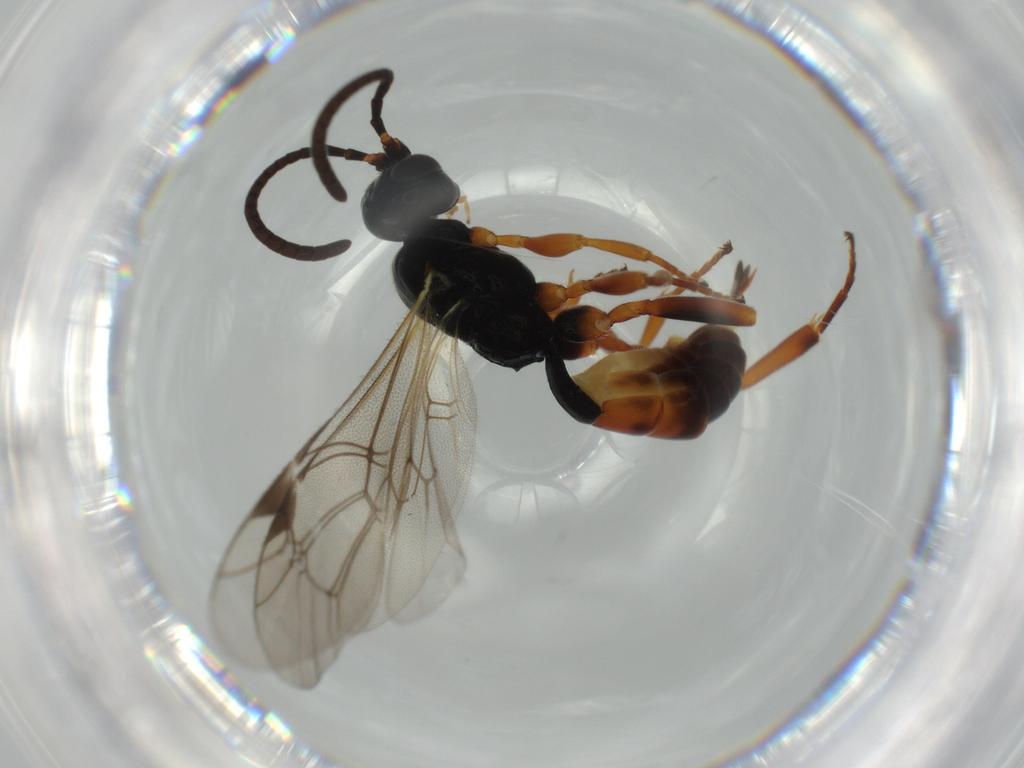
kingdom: Animalia
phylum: Arthropoda
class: Insecta
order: Hymenoptera
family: Ichneumonidae
